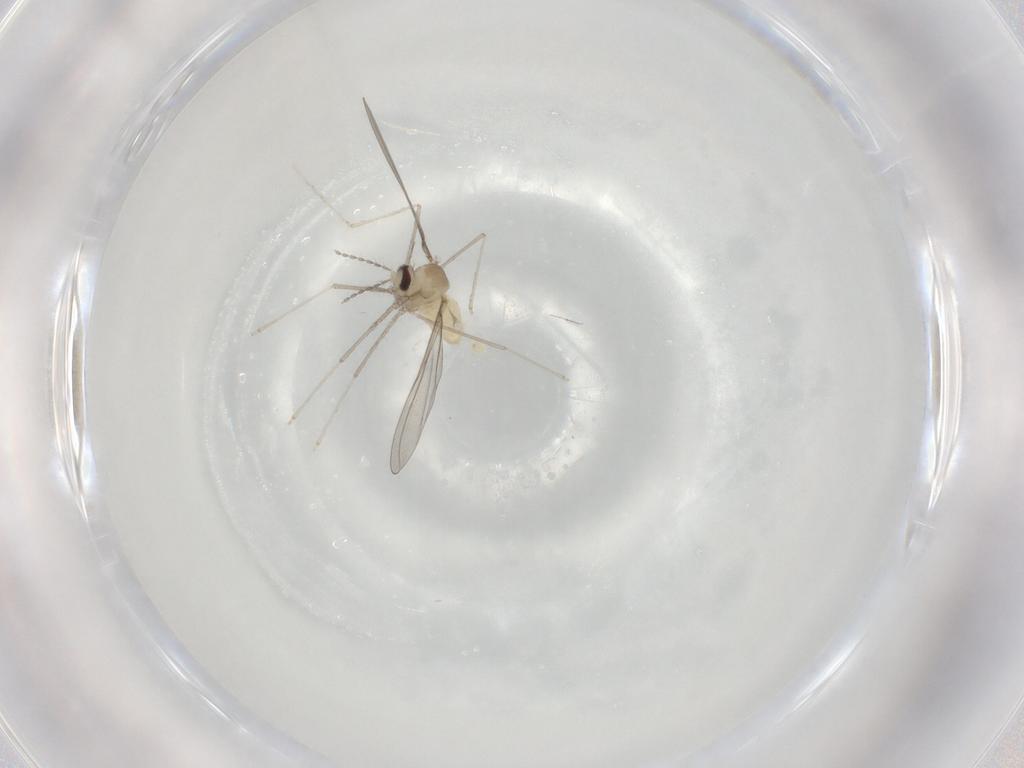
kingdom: Animalia
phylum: Arthropoda
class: Insecta
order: Diptera
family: Cecidomyiidae
